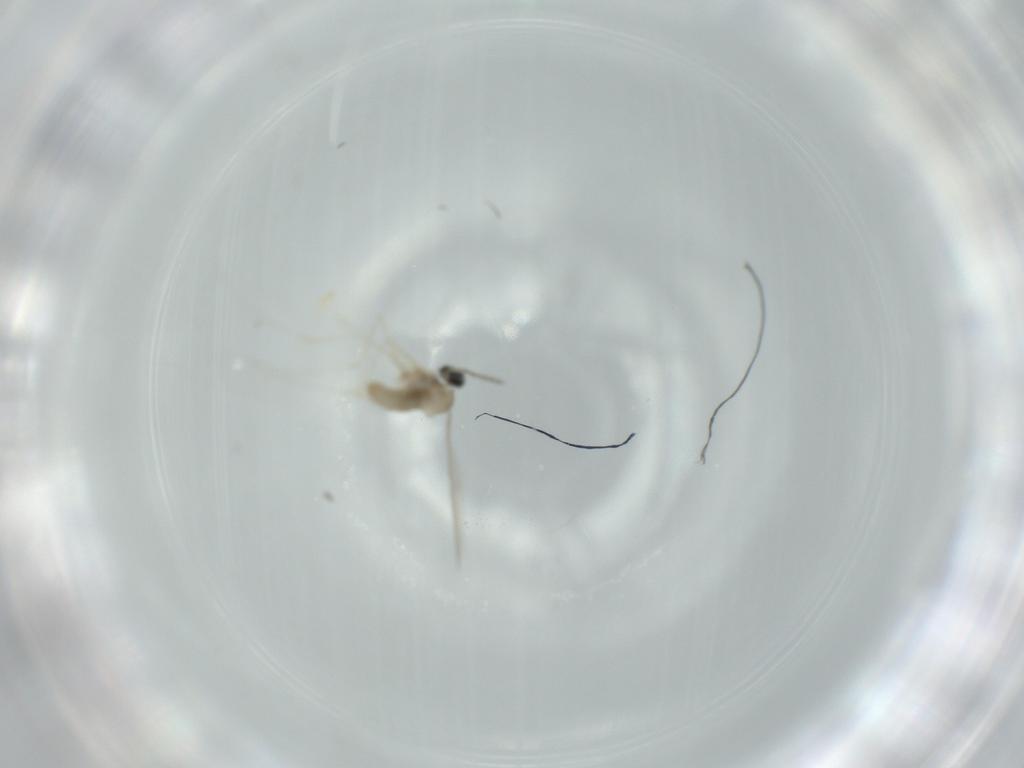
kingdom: Animalia
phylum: Arthropoda
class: Insecta
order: Diptera
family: Cecidomyiidae
